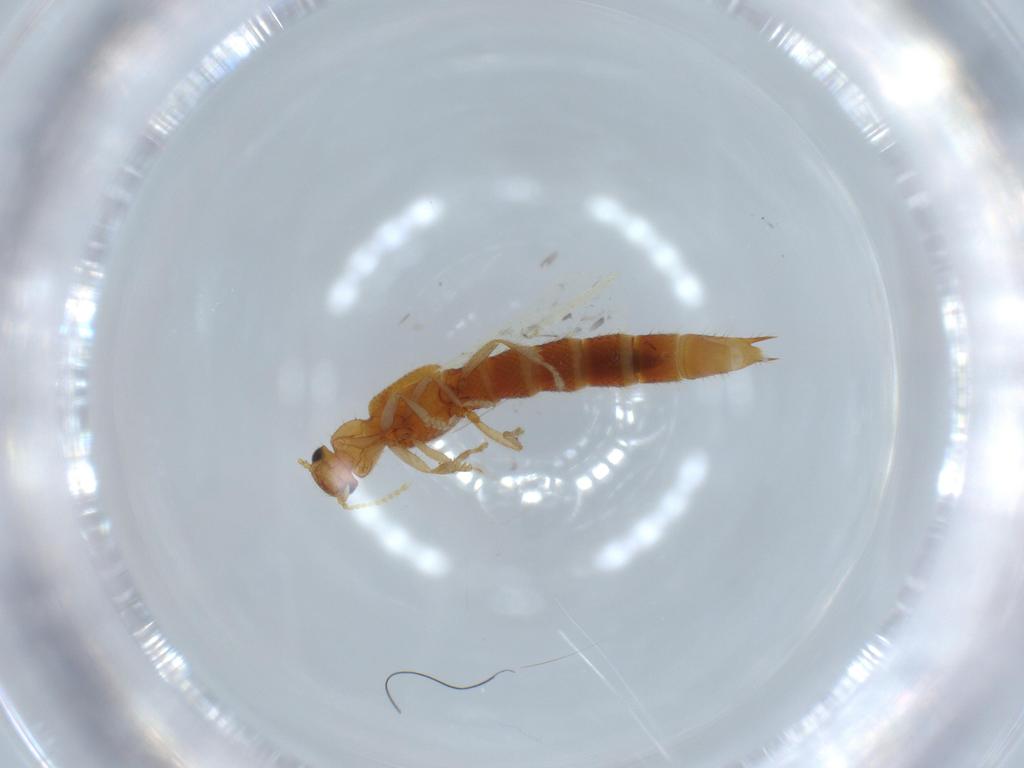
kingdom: Animalia
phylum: Arthropoda
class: Insecta
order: Coleoptera
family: Staphylinidae
